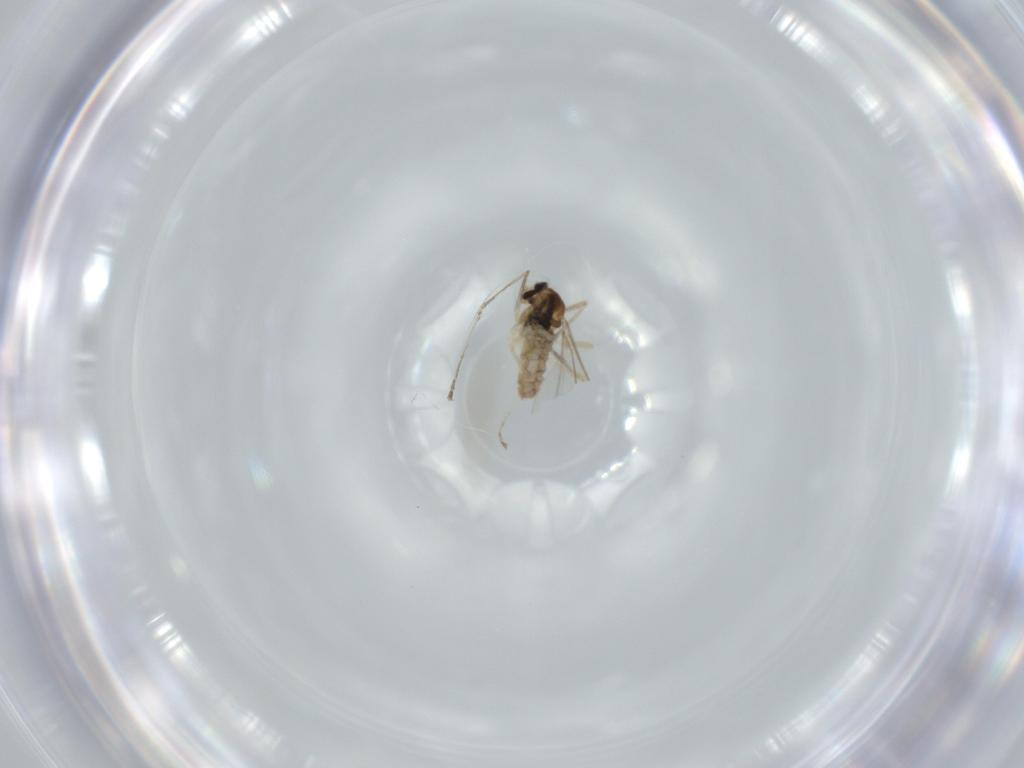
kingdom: Animalia
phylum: Arthropoda
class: Insecta
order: Diptera
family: Cecidomyiidae
